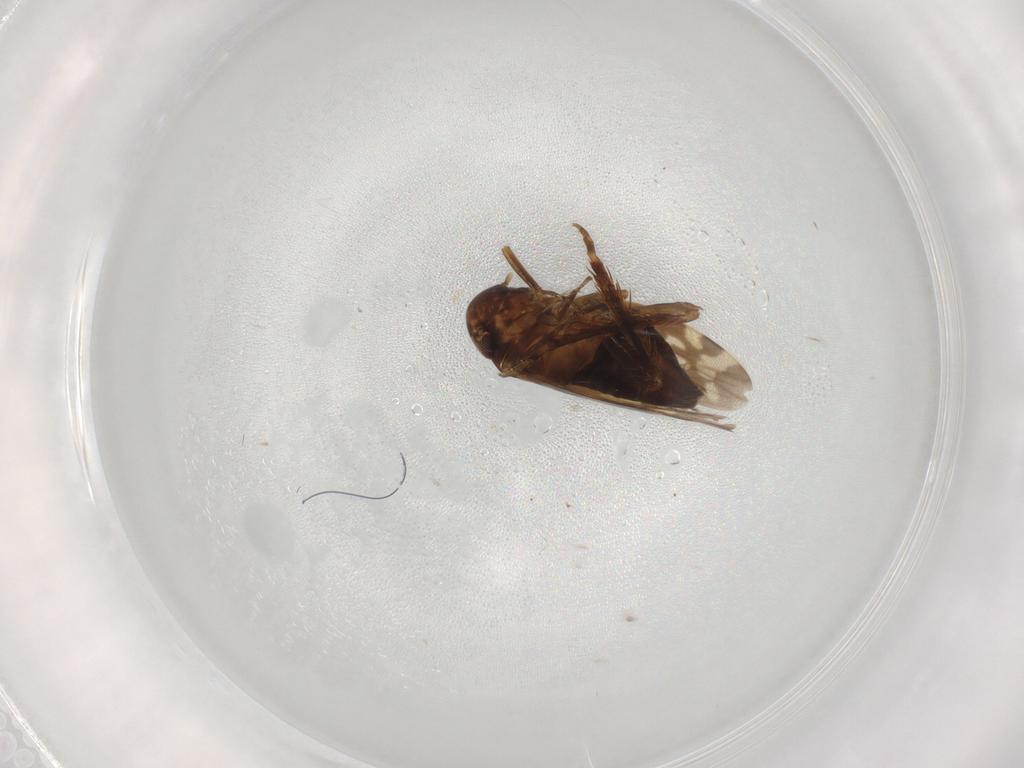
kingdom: Animalia
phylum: Arthropoda
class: Insecta
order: Hemiptera
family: Cicadellidae
